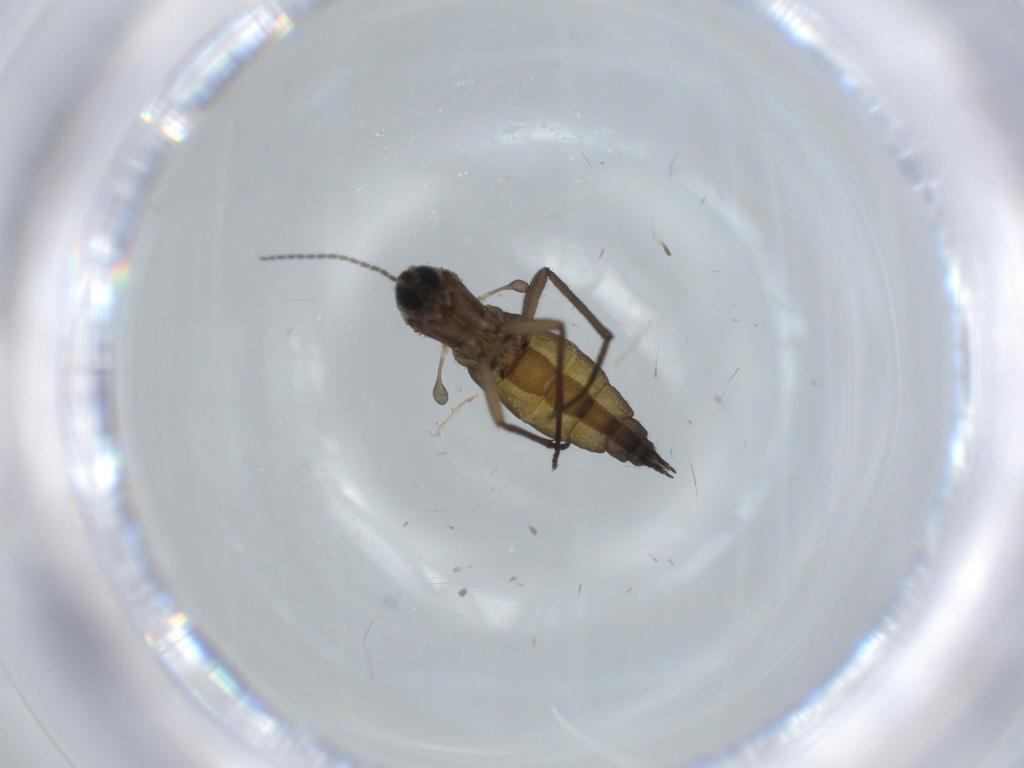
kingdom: Animalia
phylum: Arthropoda
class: Insecta
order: Diptera
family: Sciaridae
